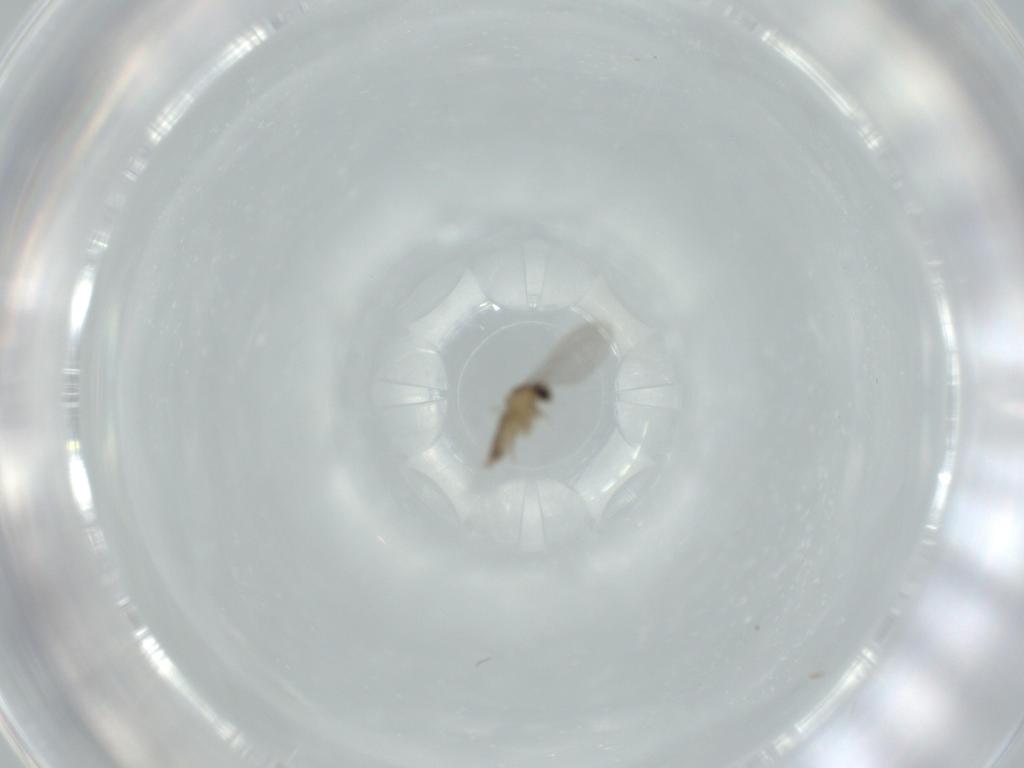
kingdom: Animalia
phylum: Arthropoda
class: Insecta
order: Diptera
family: Cecidomyiidae
